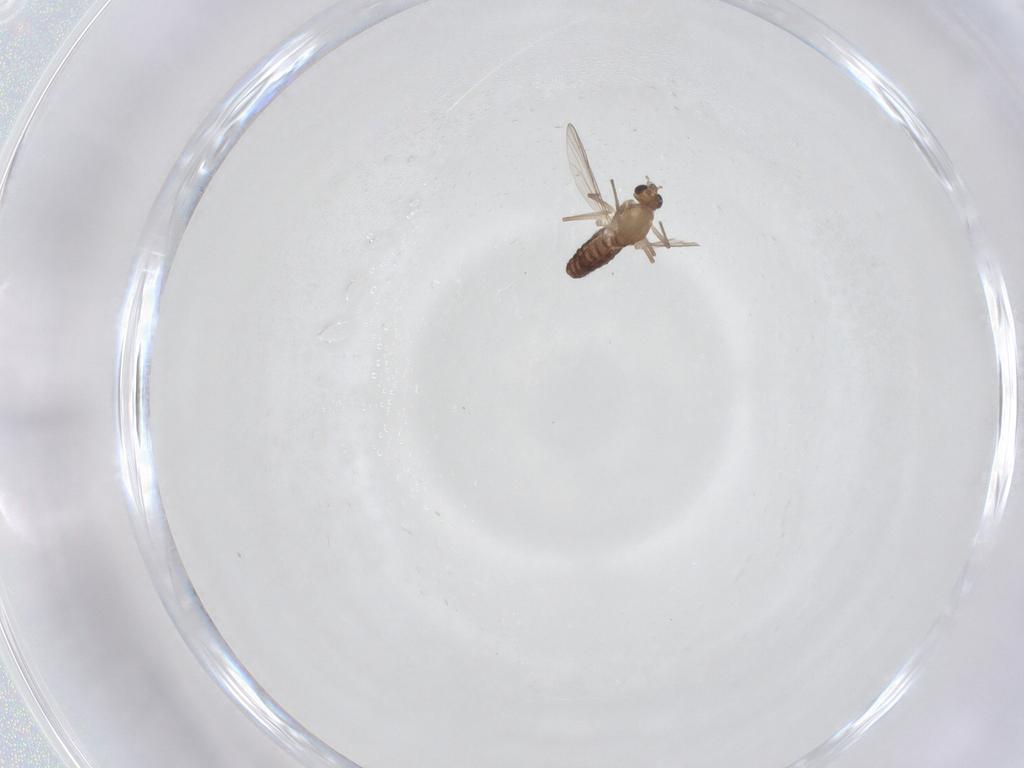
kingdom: Animalia
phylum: Arthropoda
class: Insecta
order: Diptera
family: Chironomidae
